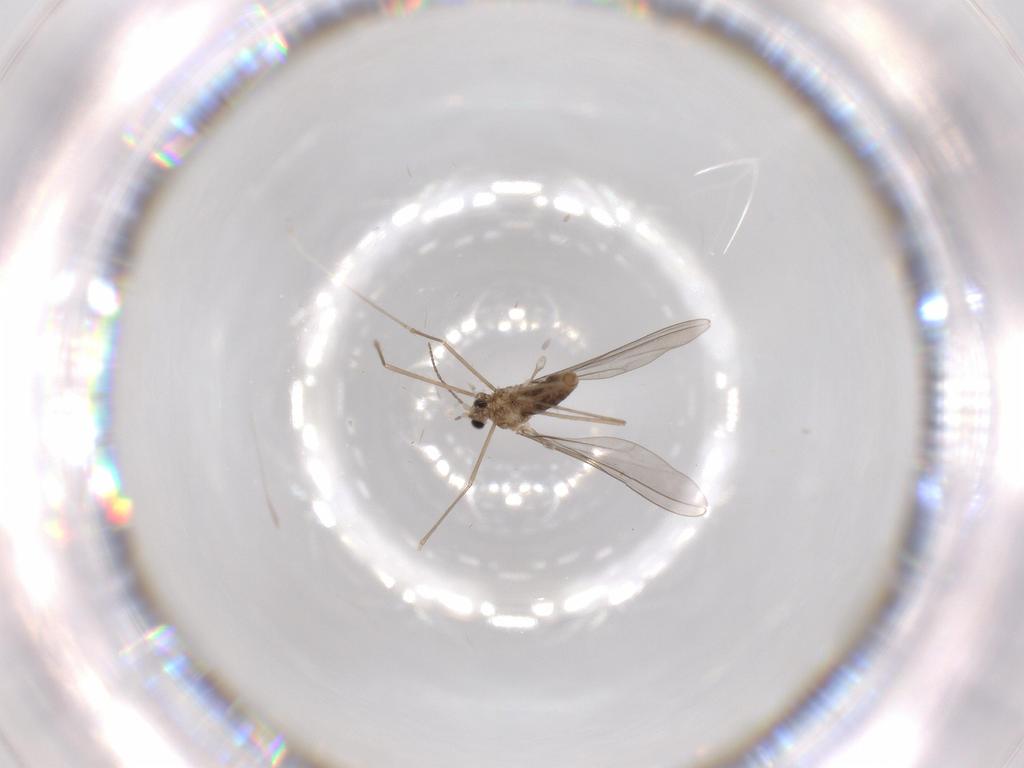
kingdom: Animalia
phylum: Arthropoda
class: Insecta
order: Diptera
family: Cecidomyiidae
